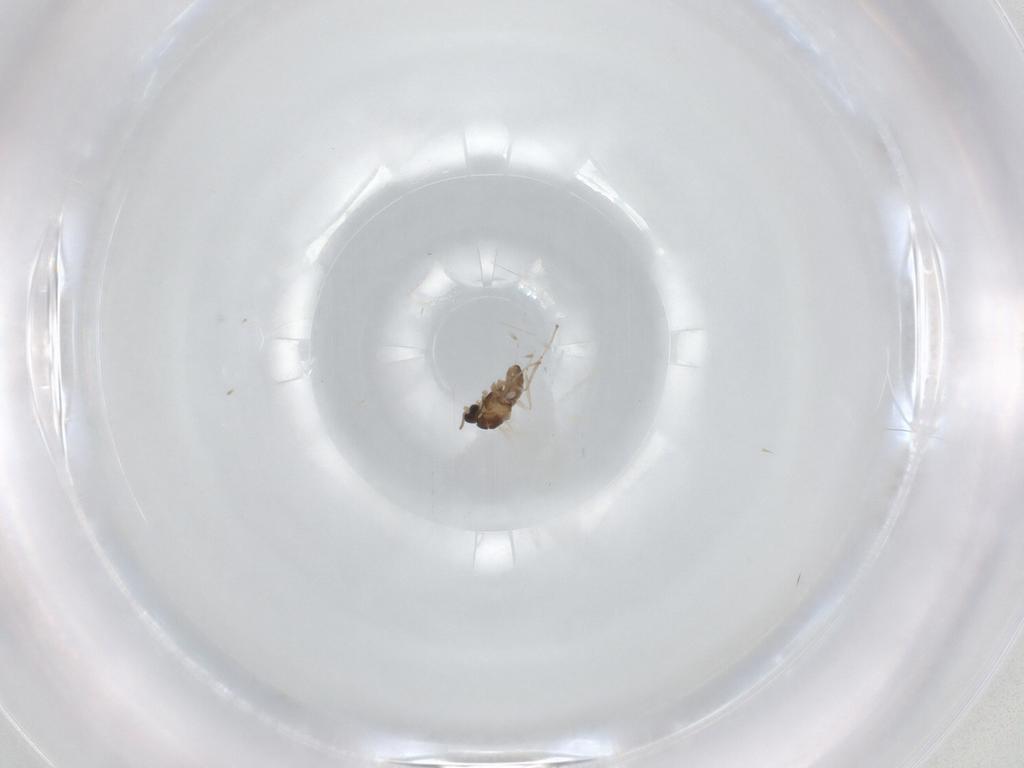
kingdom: Animalia
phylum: Arthropoda
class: Insecta
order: Diptera
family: Cecidomyiidae
